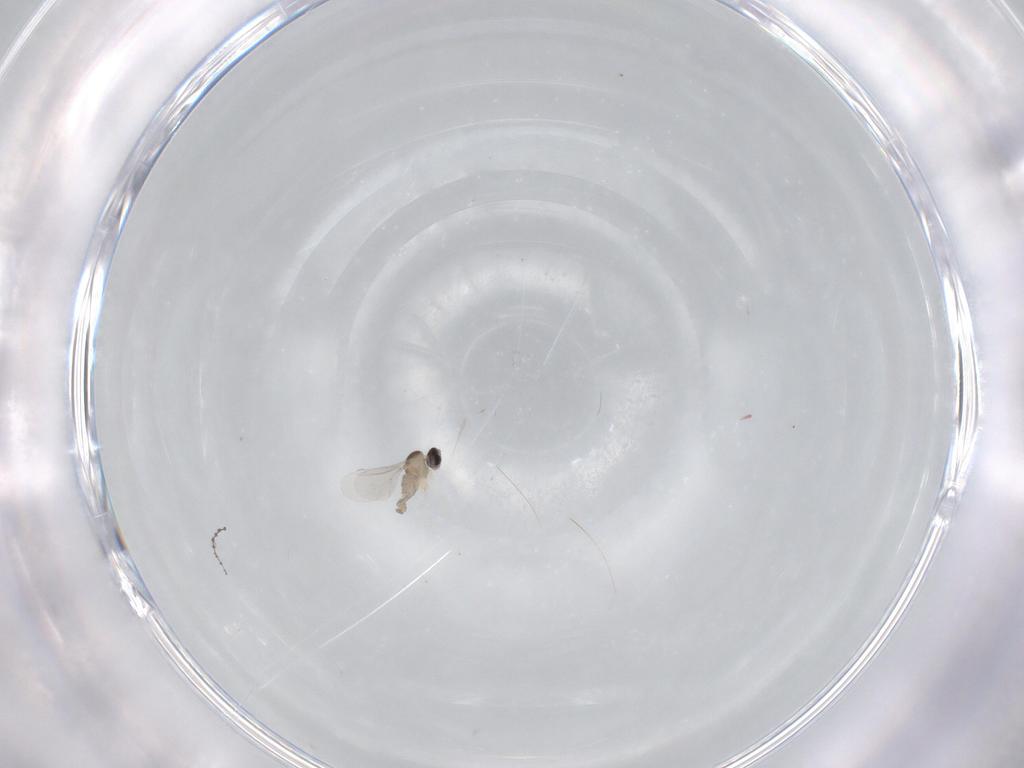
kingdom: Animalia
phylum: Arthropoda
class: Insecta
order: Diptera
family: Cecidomyiidae
